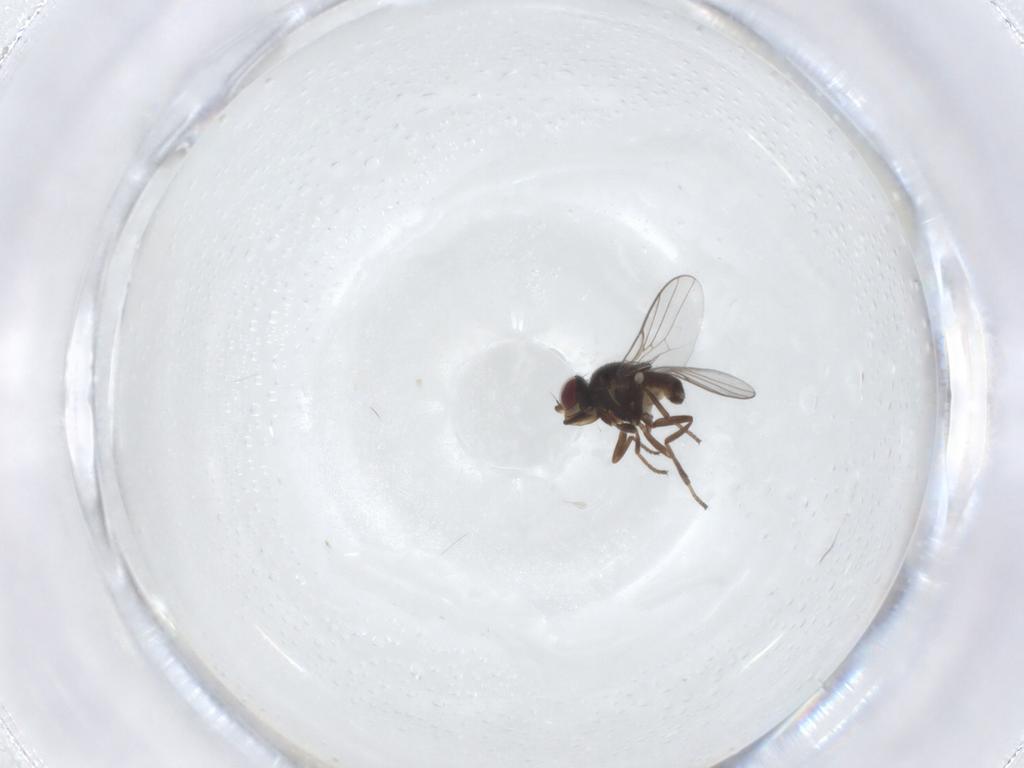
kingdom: Animalia
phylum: Arthropoda
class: Insecta
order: Diptera
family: Chloropidae
